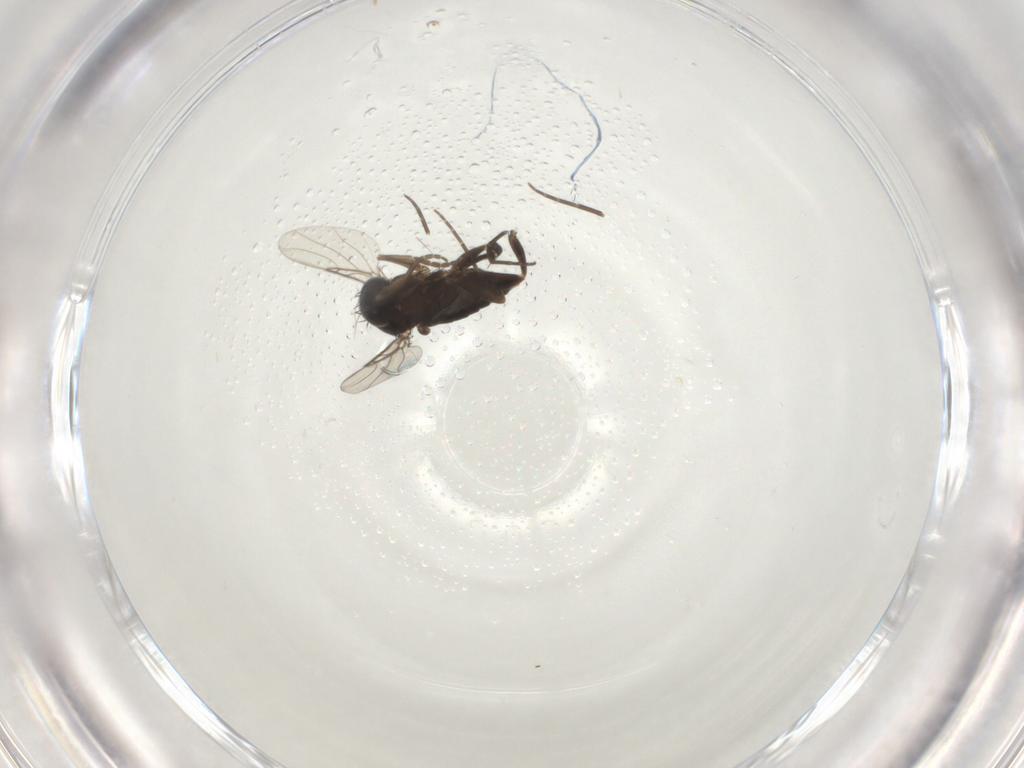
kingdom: Animalia
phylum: Arthropoda
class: Insecta
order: Diptera
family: Phoridae
